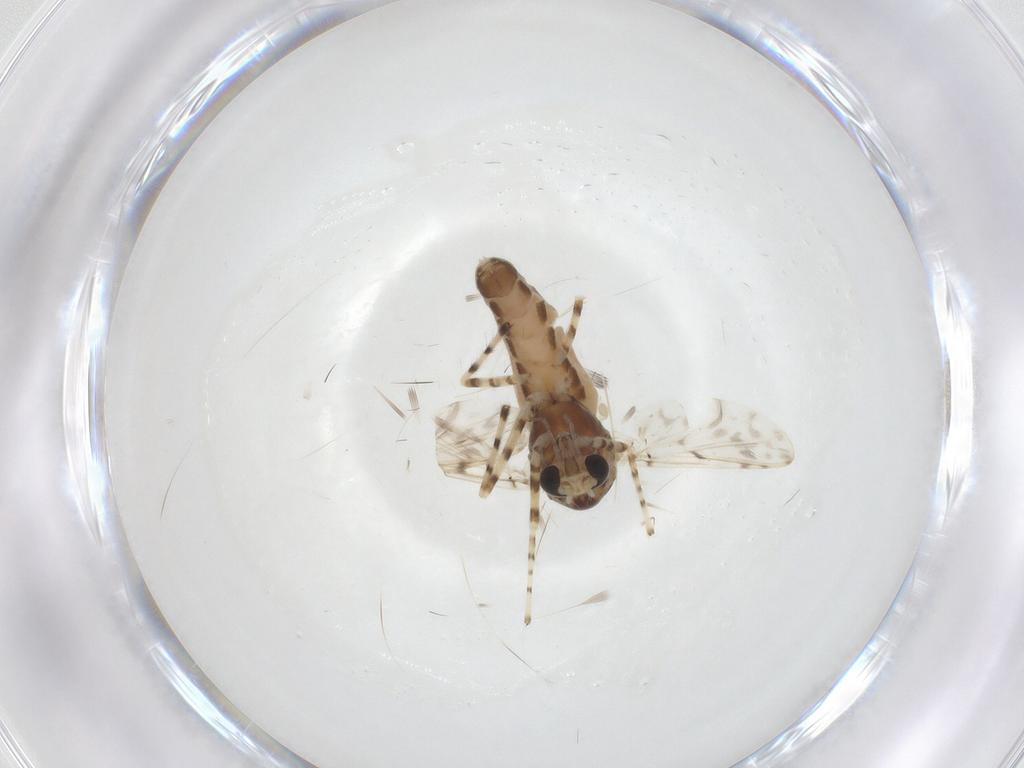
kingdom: Animalia
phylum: Arthropoda
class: Insecta
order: Diptera
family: Chironomidae
